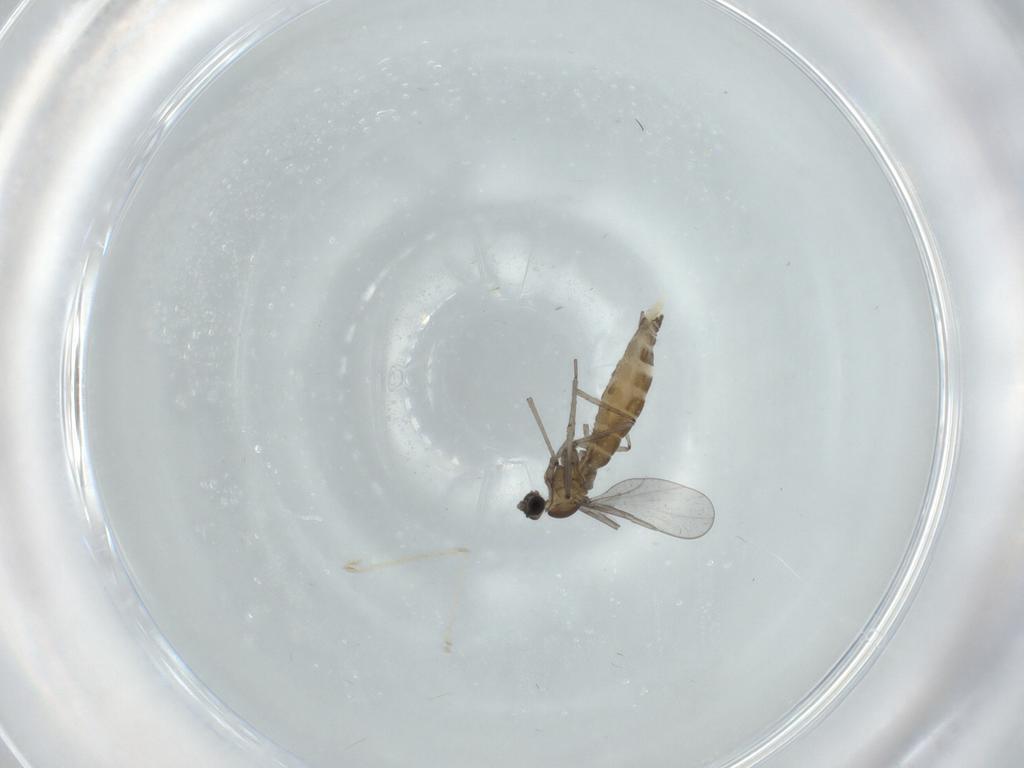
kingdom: Animalia
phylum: Arthropoda
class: Insecta
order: Diptera
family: Cecidomyiidae
